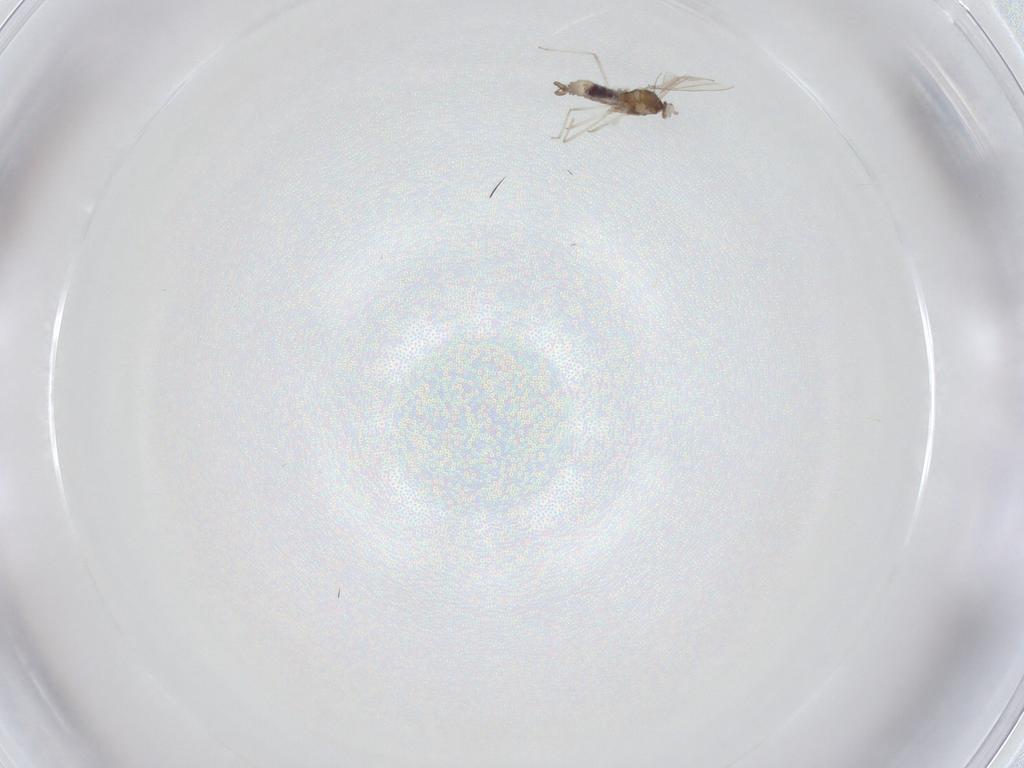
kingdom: Animalia
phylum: Arthropoda
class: Insecta
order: Diptera
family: Cecidomyiidae
